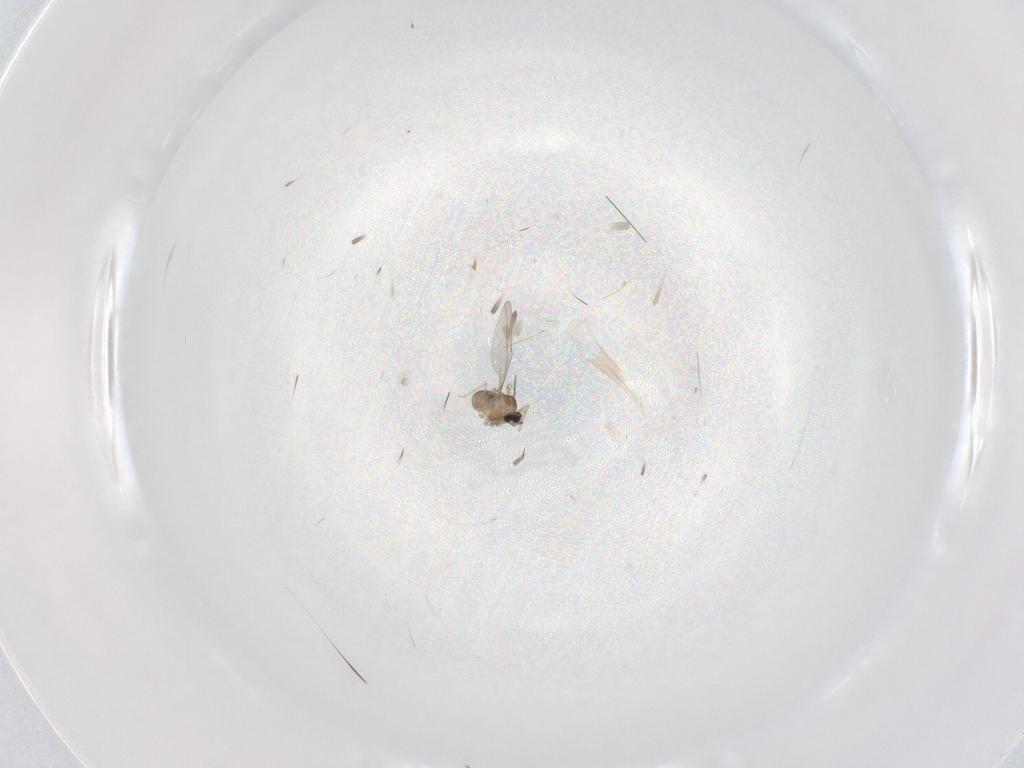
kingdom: Animalia
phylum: Arthropoda
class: Insecta
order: Diptera
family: Cecidomyiidae
